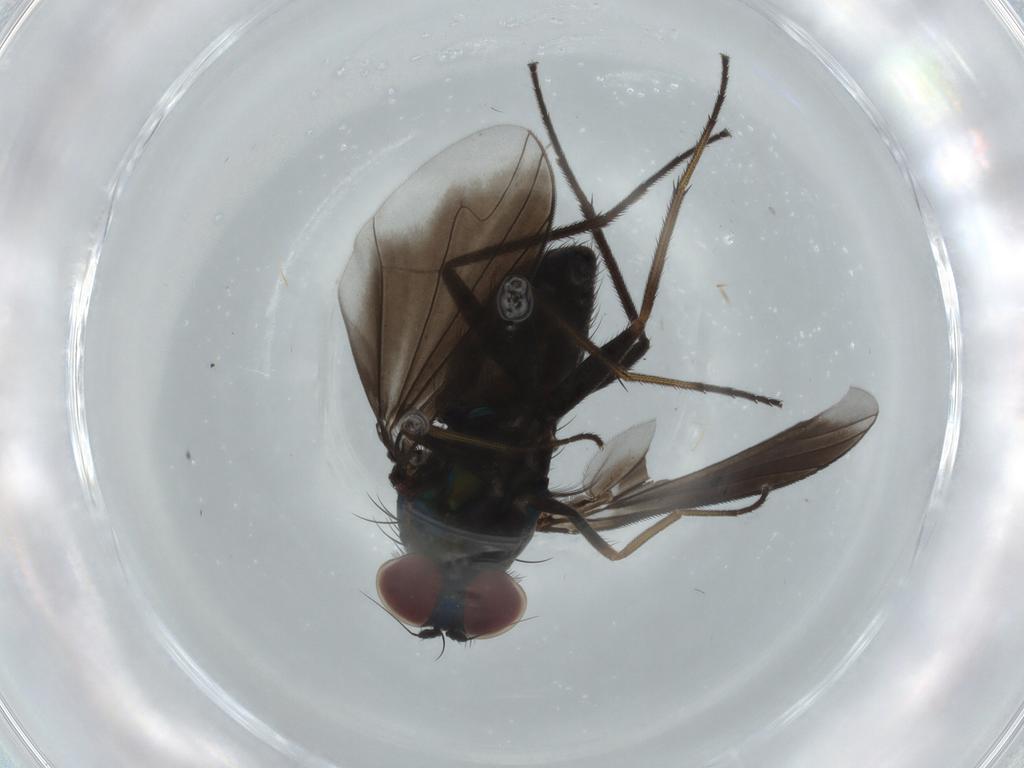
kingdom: Animalia
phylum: Arthropoda
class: Insecta
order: Diptera
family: Dolichopodidae
